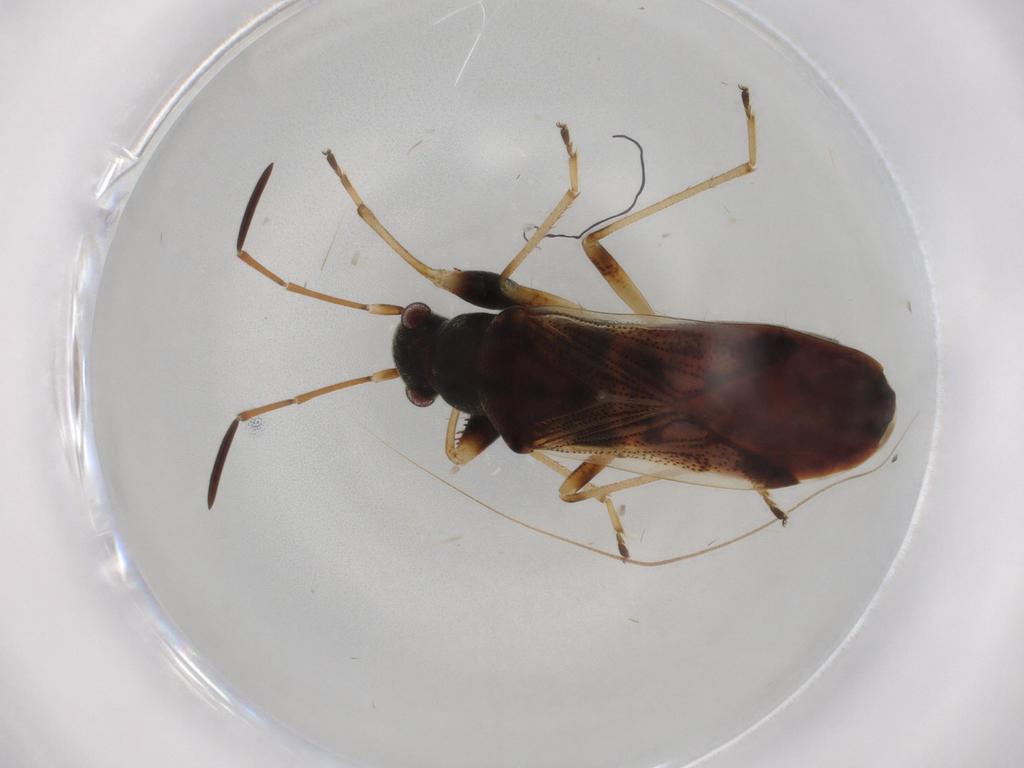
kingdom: Animalia
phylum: Arthropoda
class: Insecta
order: Hemiptera
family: Rhyparochromidae
